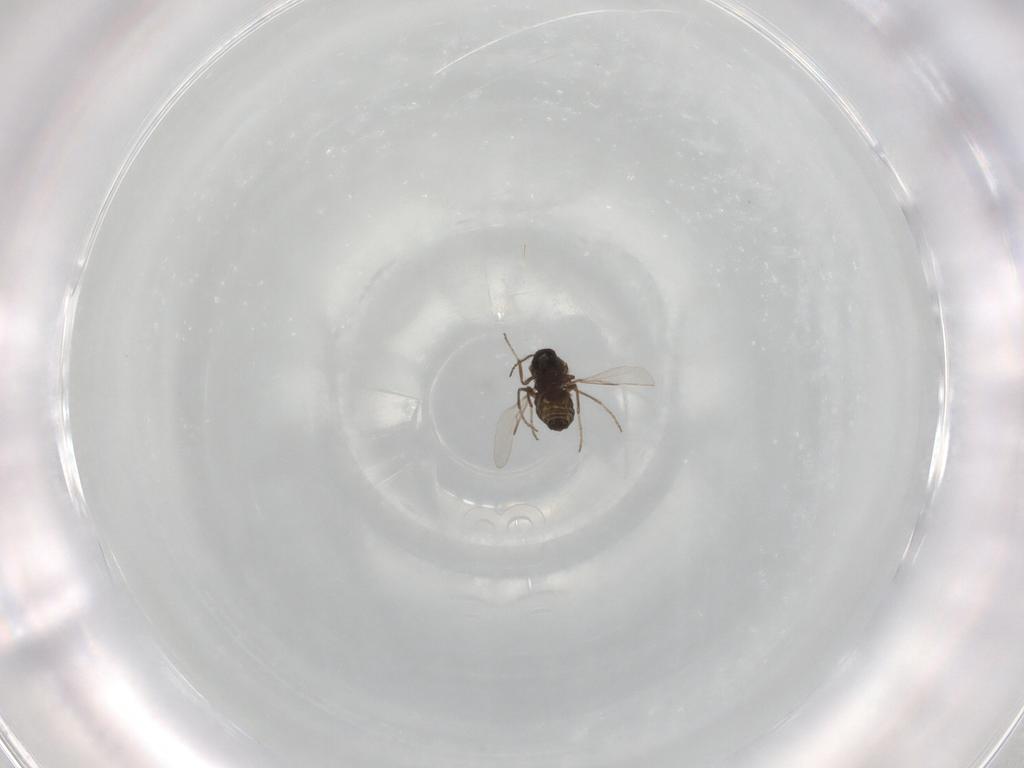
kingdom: Animalia
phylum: Arthropoda
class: Insecta
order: Diptera
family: Ceratopogonidae
